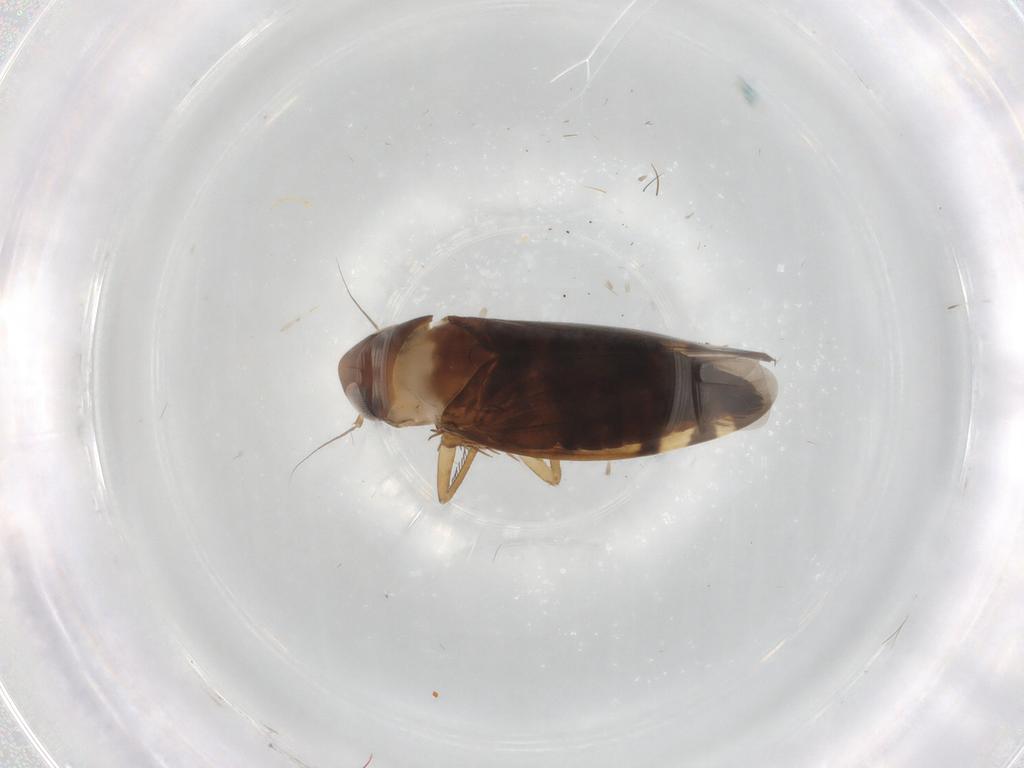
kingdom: Animalia
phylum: Arthropoda
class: Insecta
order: Hemiptera
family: Cicadellidae
